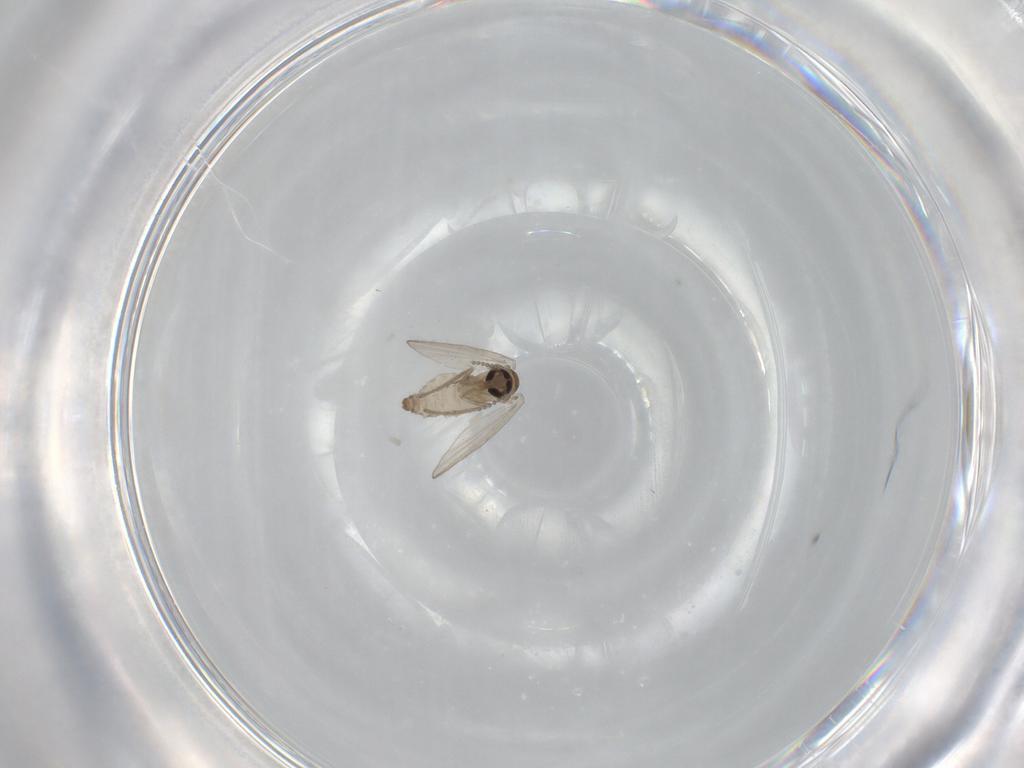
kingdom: Animalia
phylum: Arthropoda
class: Insecta
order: Diptera
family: Psychodidae
